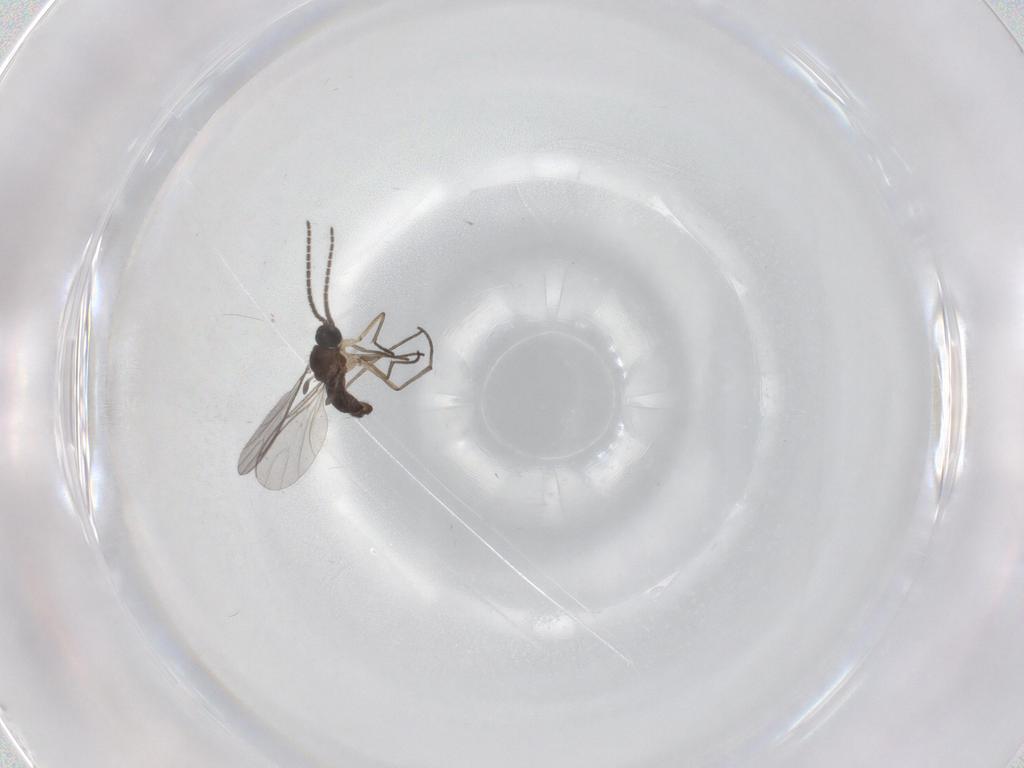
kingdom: Animalia
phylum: Arthropoda
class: Insecta
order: Diptera
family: Sciaridae
